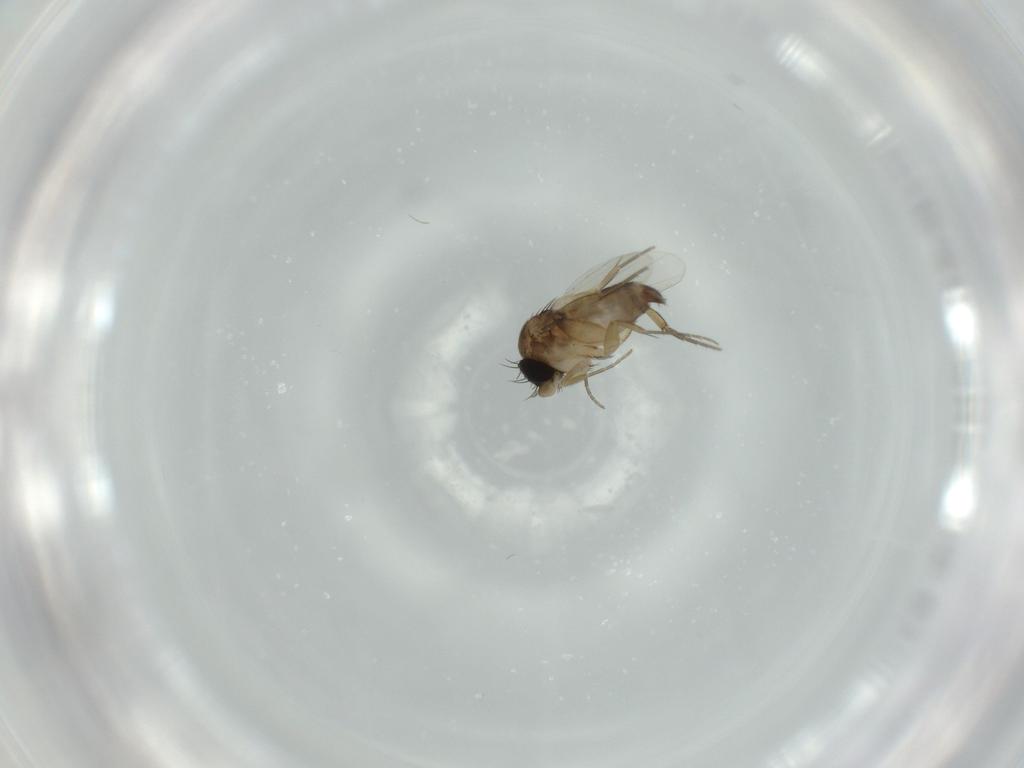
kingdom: Animalia
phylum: Arthropoda
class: Insecta
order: Diptera
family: Phoridae
